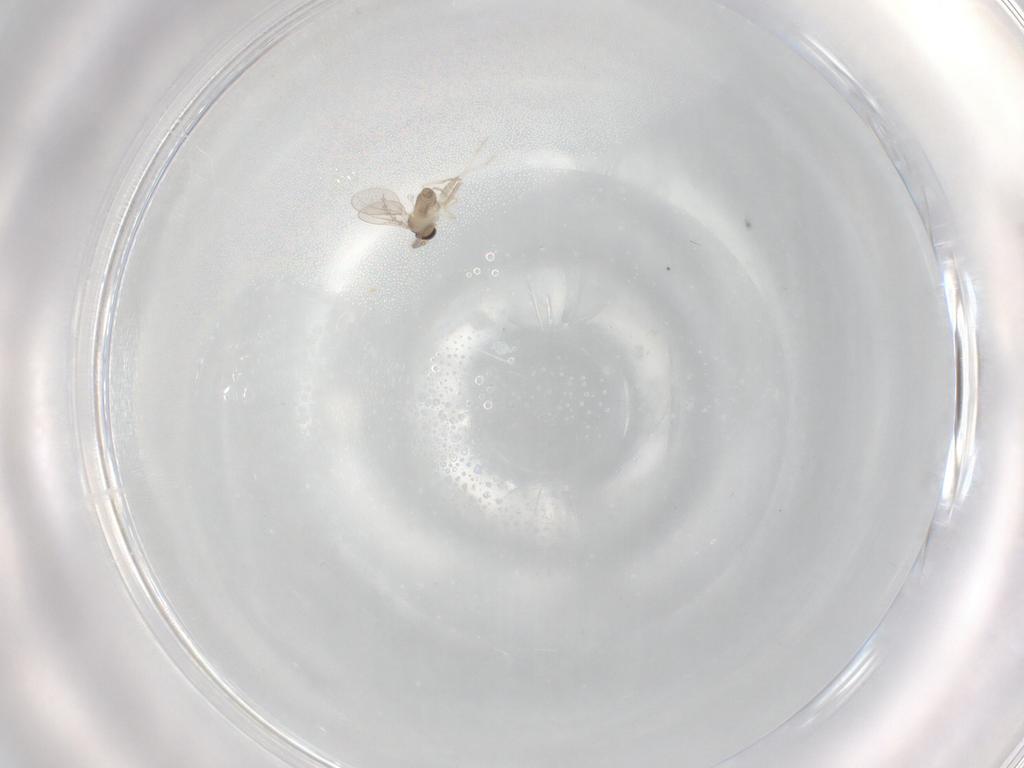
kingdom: Animalia
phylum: Arthropoda
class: Insecta
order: Diptera
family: Cecidomyiidae
